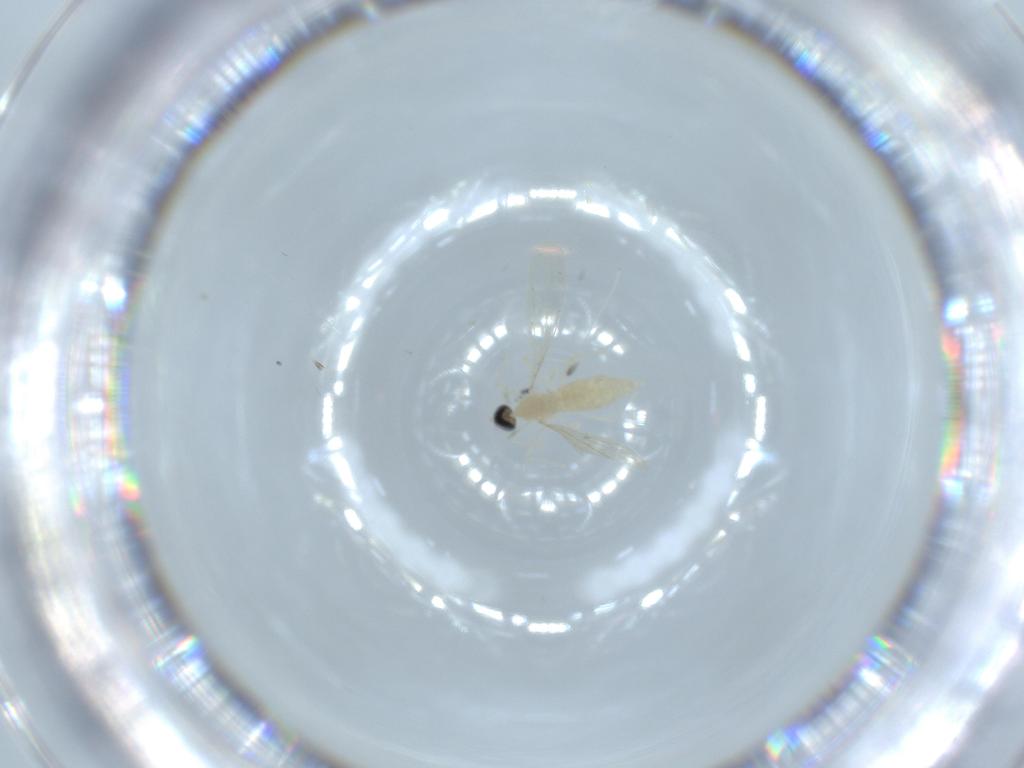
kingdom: Animalia
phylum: Arthropoda
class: Insecta
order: Diptera
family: Cecidomyiidae
